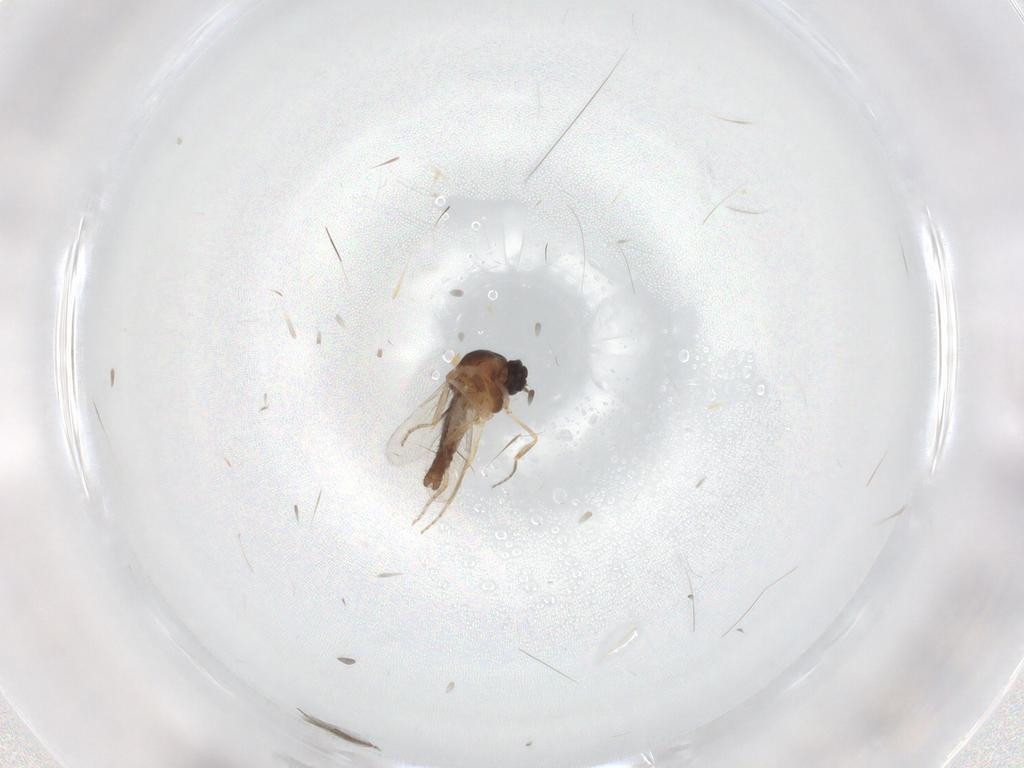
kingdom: Animalia
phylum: Arthropoda
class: Insecta
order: Diptera
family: Ceratopogonidae
